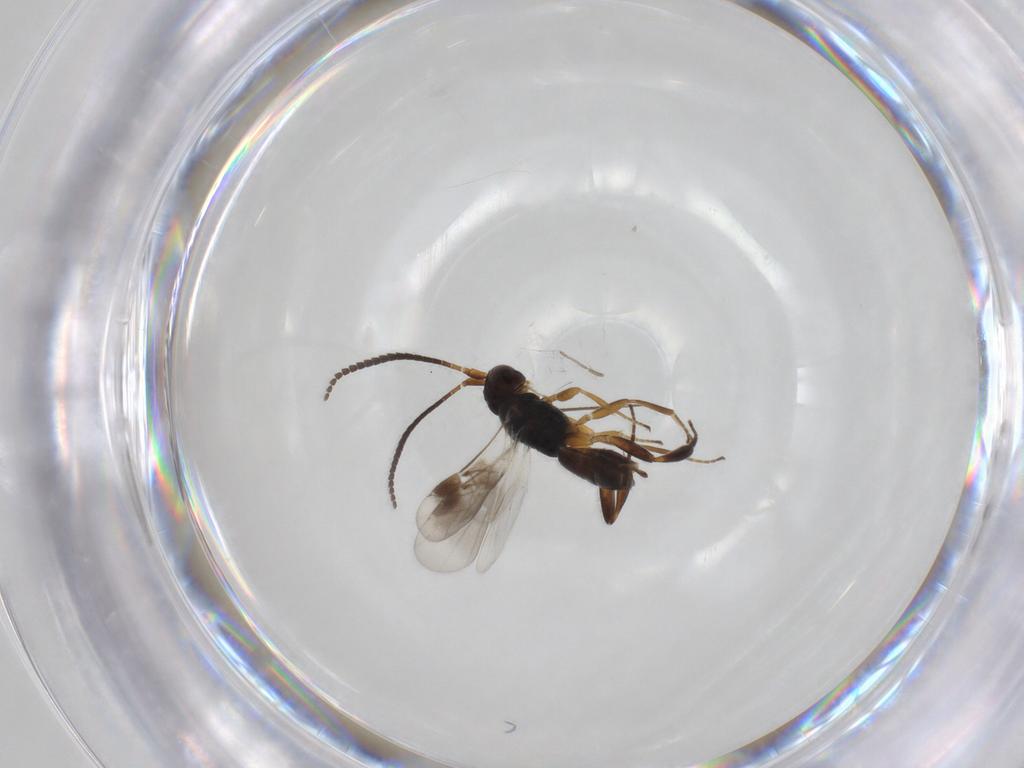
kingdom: Animalia
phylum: Arthropoda
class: Insecta
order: Hymenoptera
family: Braconidae
